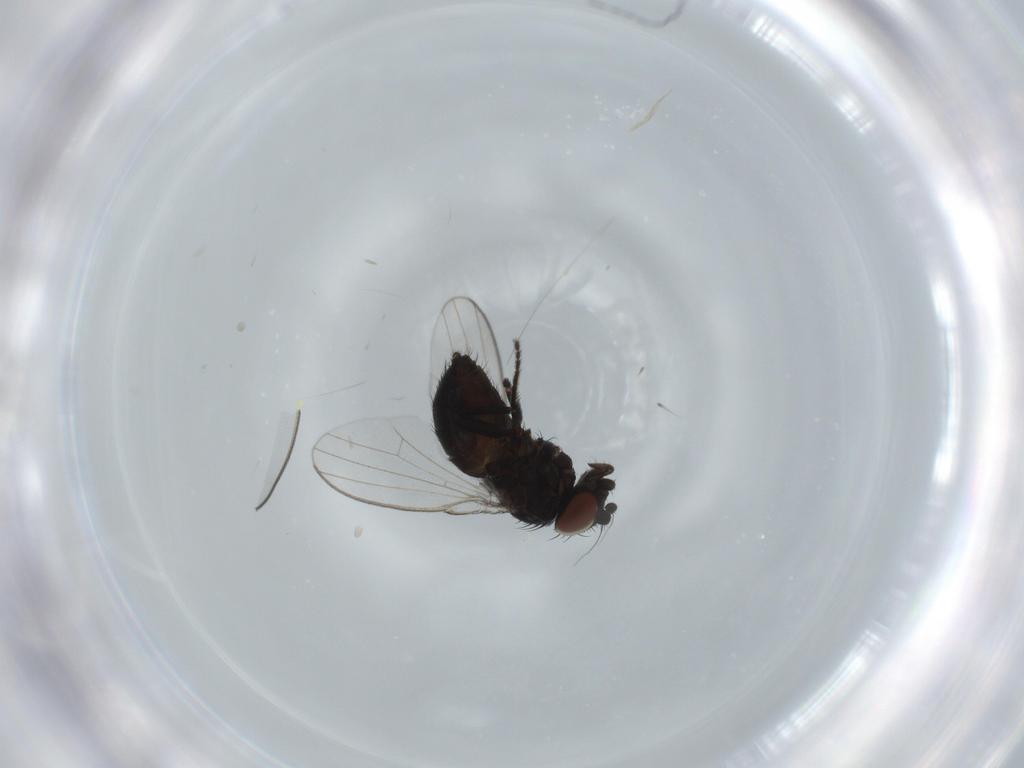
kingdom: Animalia
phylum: Arthropoda
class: Insecta
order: Diptera
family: Milichiidae
